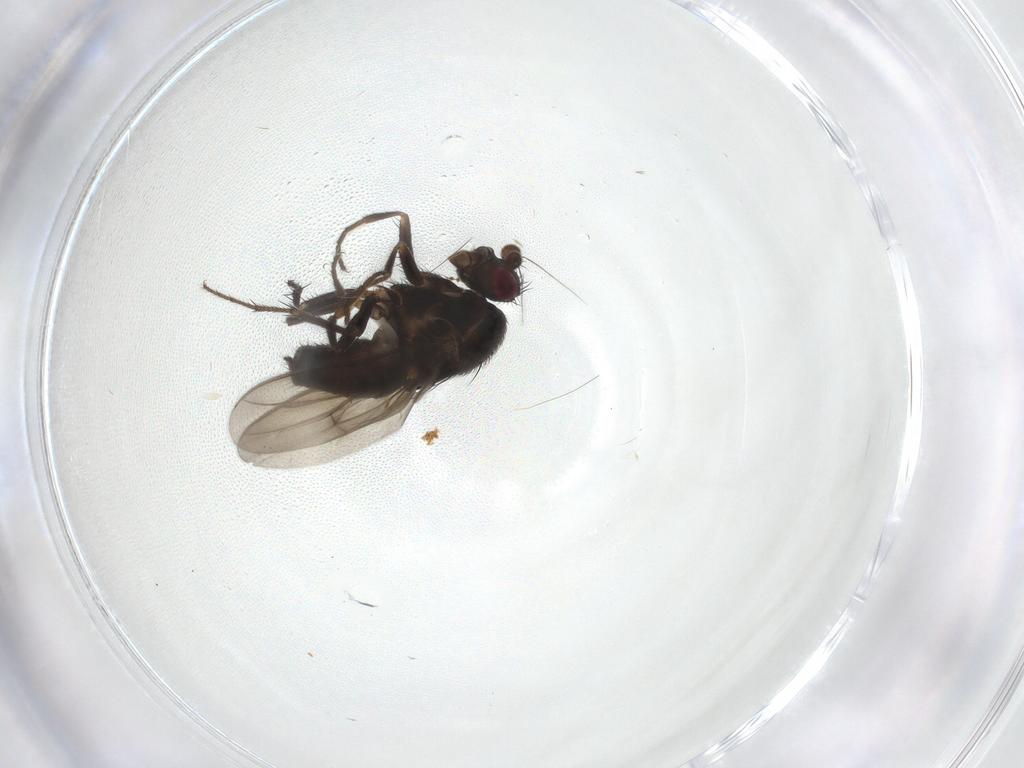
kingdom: Animalia
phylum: Arthropoda
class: Insecta
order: Diptera
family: Sphaeroceridae
